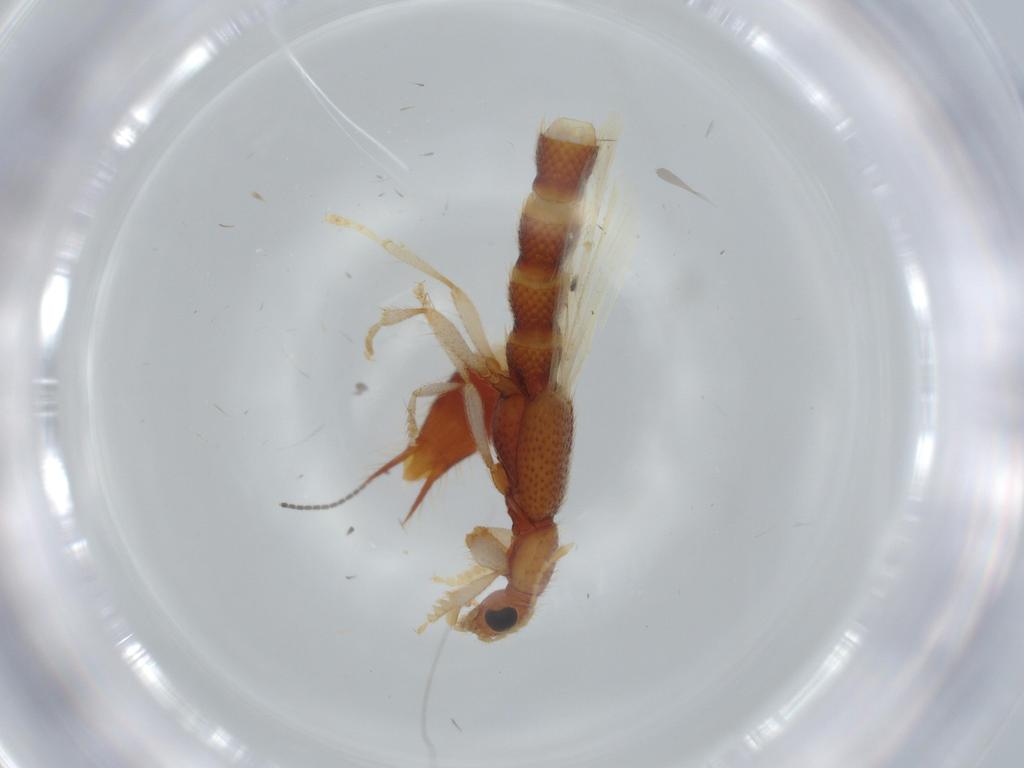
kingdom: Animalia
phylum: Arthropoda
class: Insecta
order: Coleoptera
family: Staphylinidae
